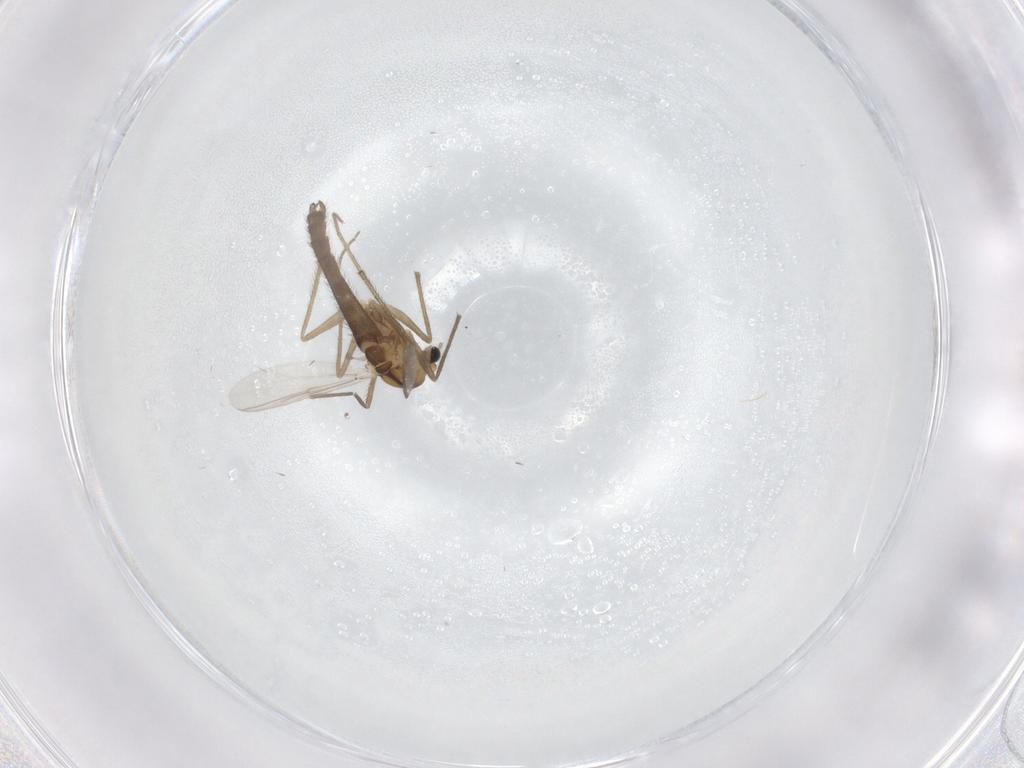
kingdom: Animalia
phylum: Arthropoda
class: Insecta
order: Diptera
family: Chironomidae
